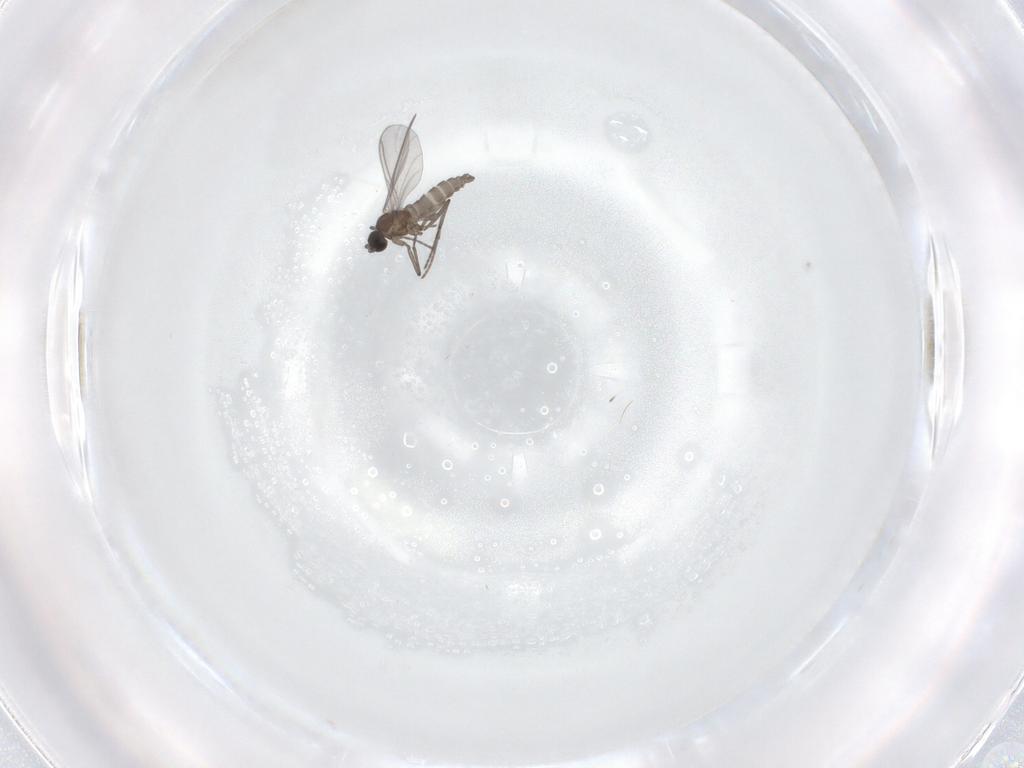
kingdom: Animalia
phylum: Arthropoda
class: Insecta
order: Diptera
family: Sciaridae
